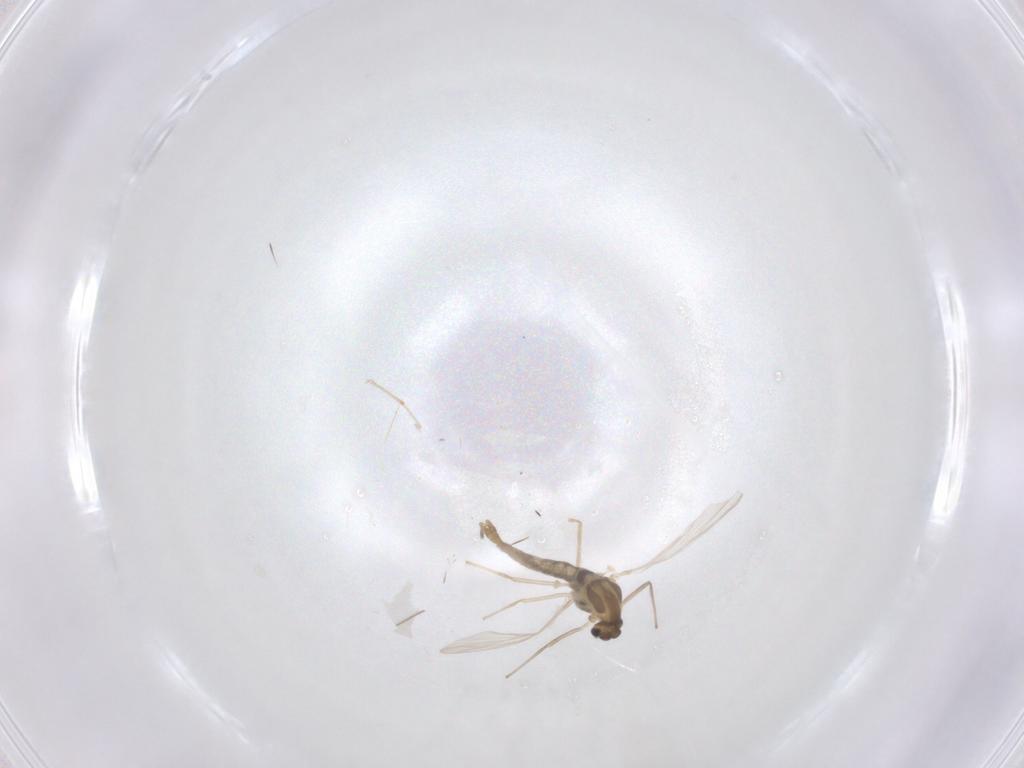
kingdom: Animalia
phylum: Arthropoda
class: Insecta
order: Diptera
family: Chironomidae
